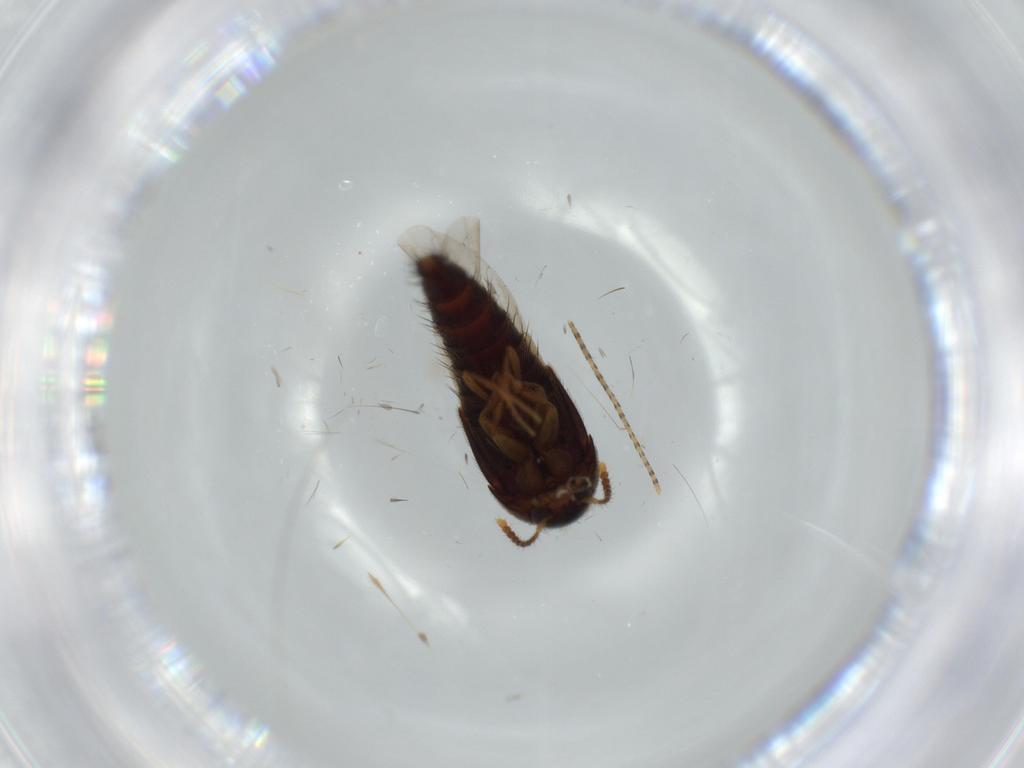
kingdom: Animalia
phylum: Arthropoda
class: Insecta
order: Coleoptera
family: Staphylinidae
